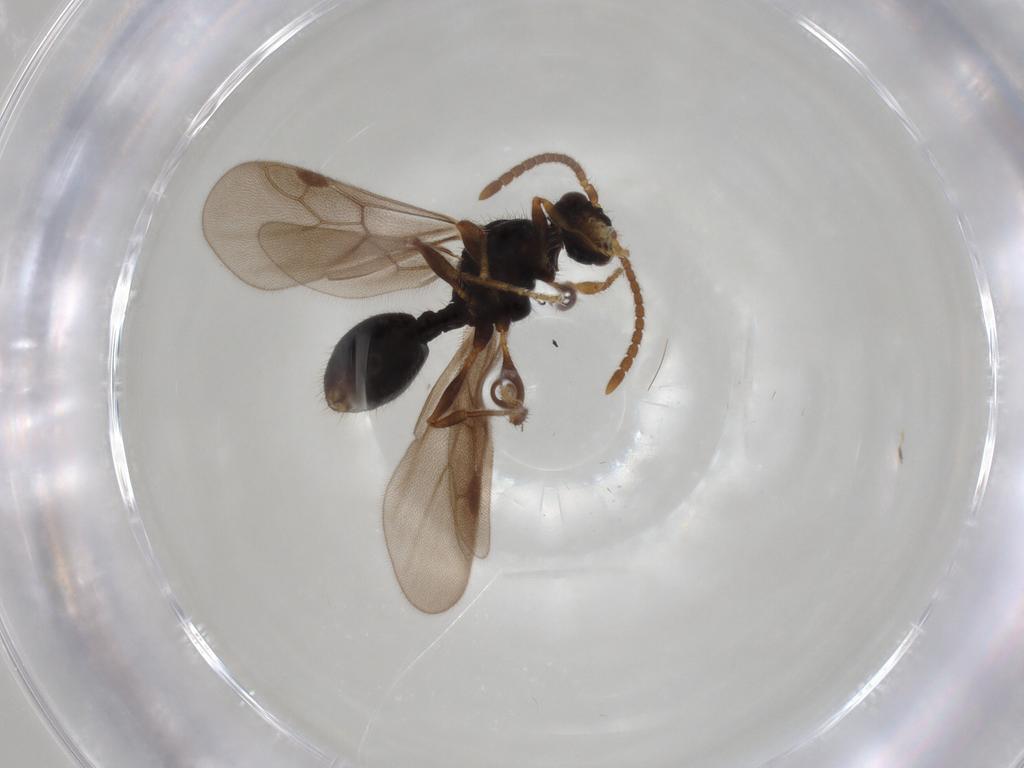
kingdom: Animalia
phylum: Arthropoda
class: Insecta
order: Hymenoptera
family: Formicidae
